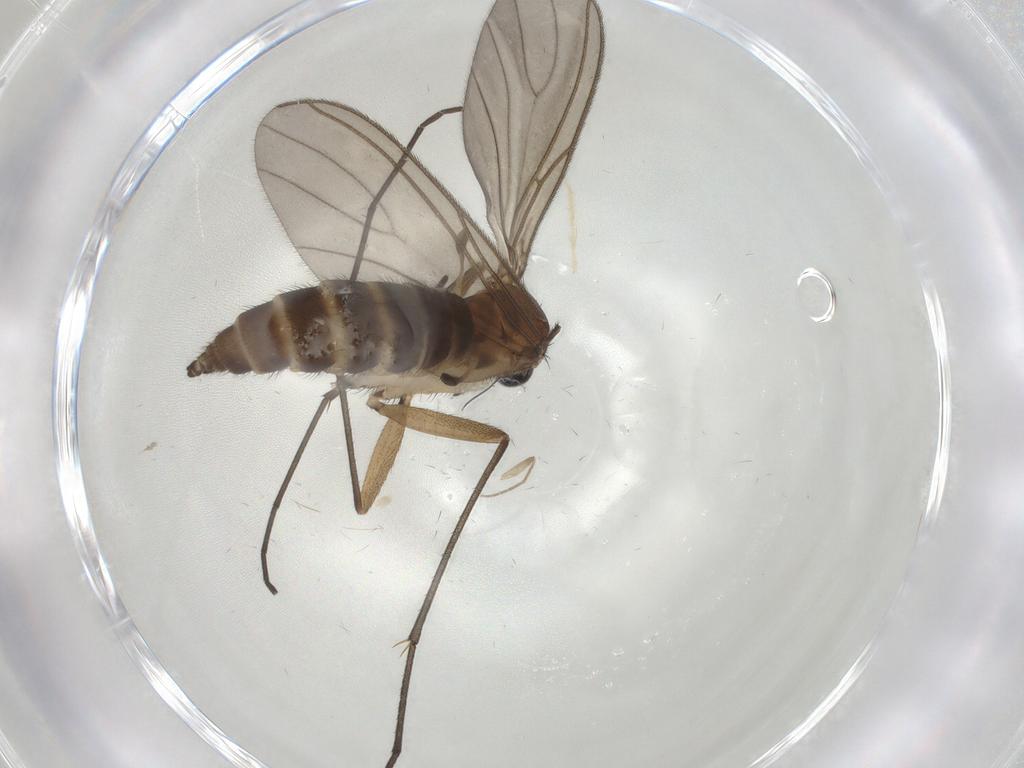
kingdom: Animalia
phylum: Arthropoda
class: Insecta
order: Diptera
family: Sciaridae
